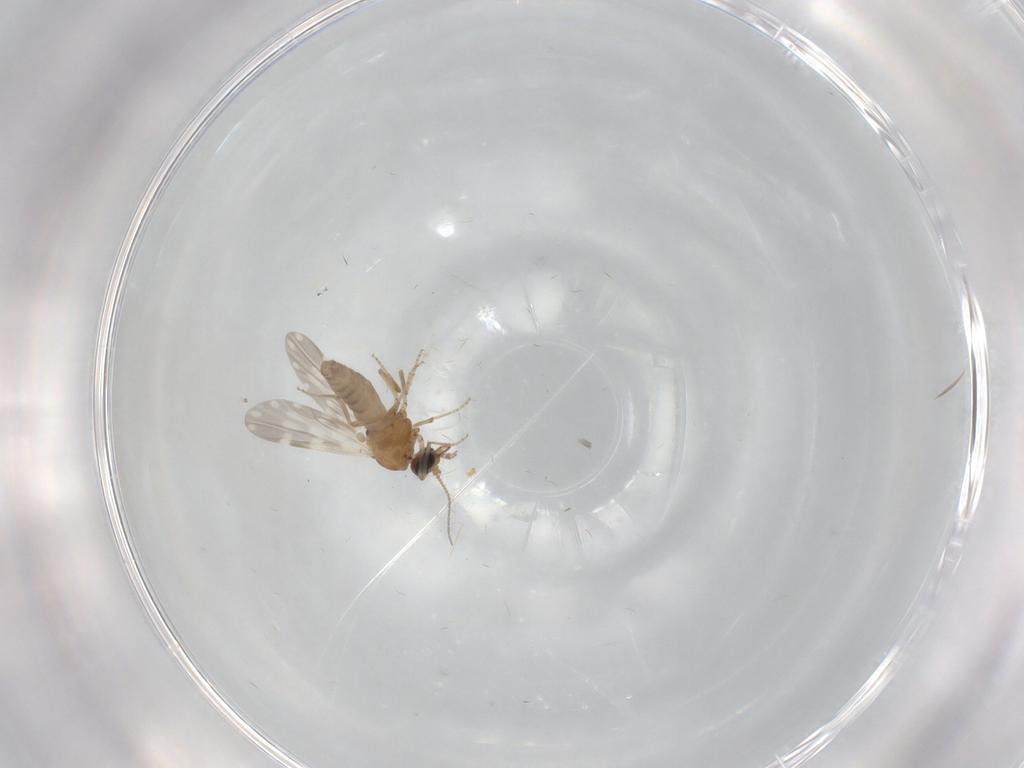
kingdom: Animalia
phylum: Arthropoda
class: Insecta
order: Diptera
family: Ceratopogonidae
